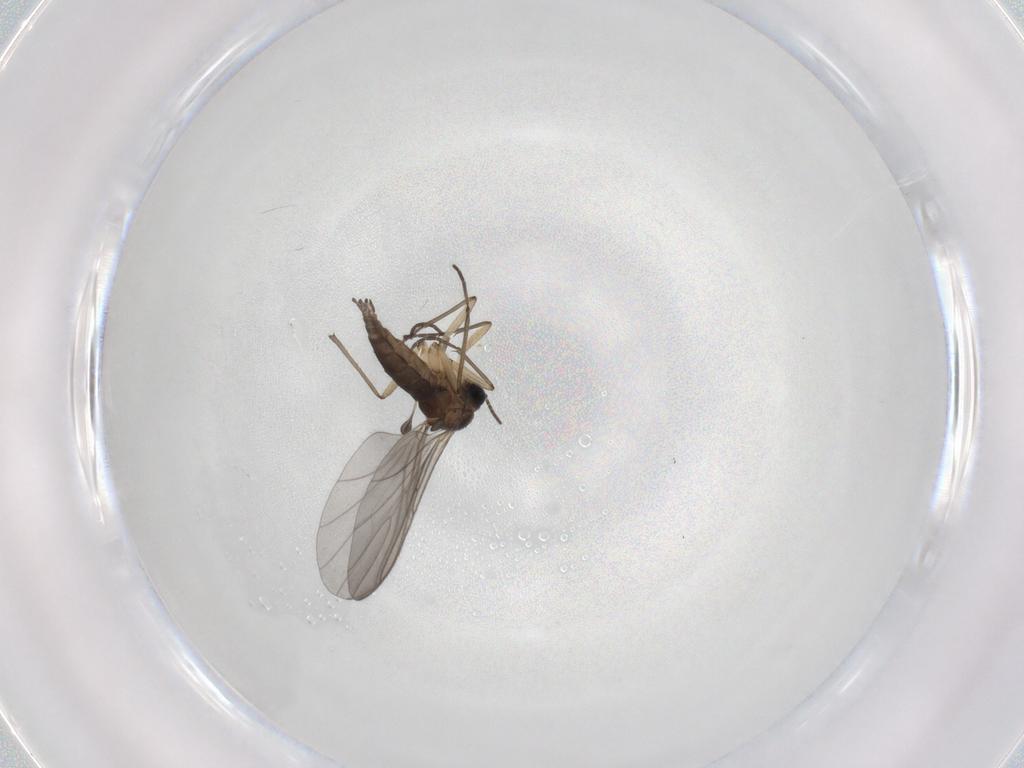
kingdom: Animalia
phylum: Arthropoda
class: Insecta
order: Diptera
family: Sciaridae
